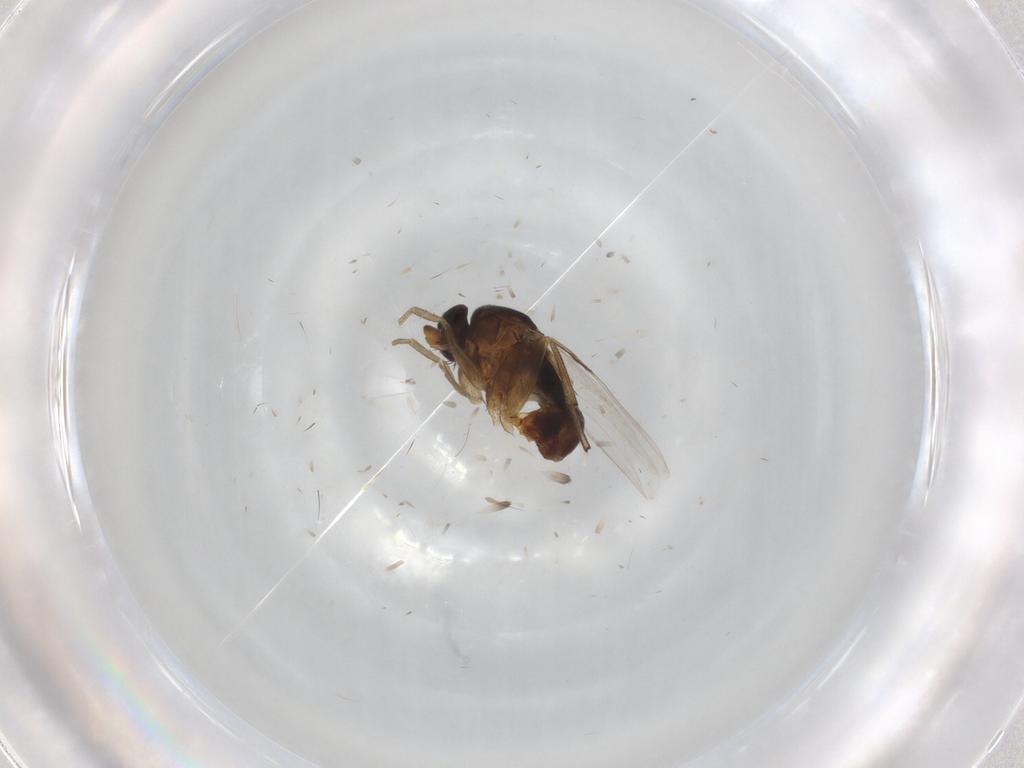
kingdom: Animalia
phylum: Arthropoda
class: Insecta
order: Diptera
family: Phoridae
